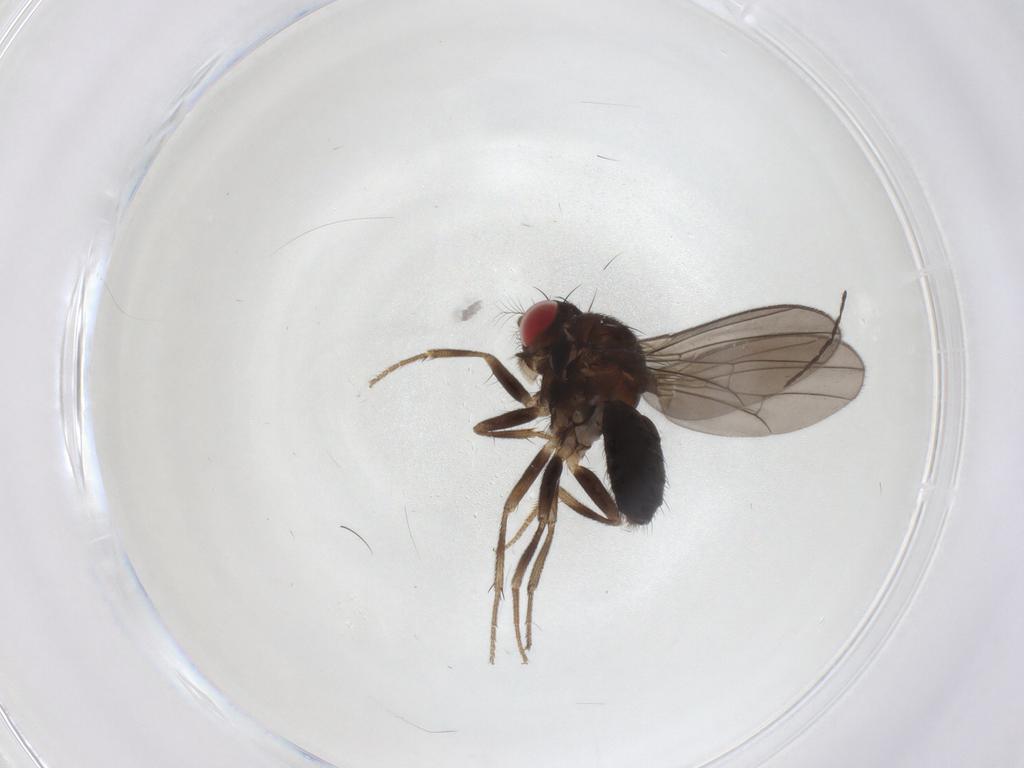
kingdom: Animalia
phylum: Arthropoda
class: Insecta
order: Diptera
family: Drosophilidae
